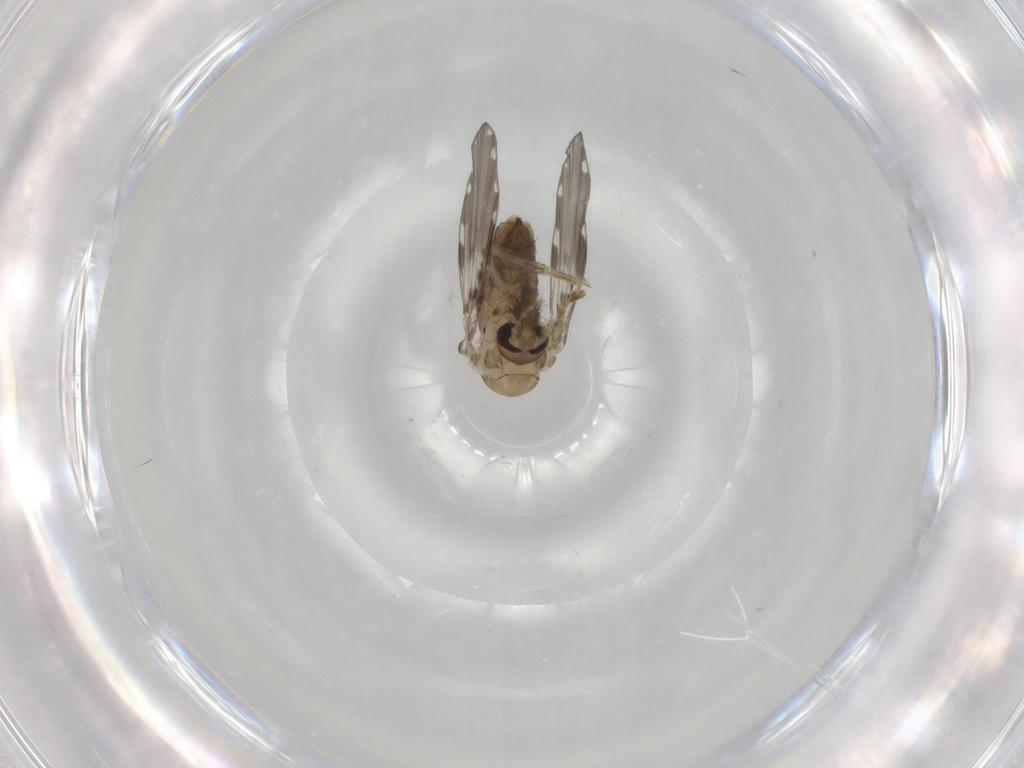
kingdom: Animalia
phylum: Arthropoda
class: Insecta
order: Diptera
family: Psychodidae
